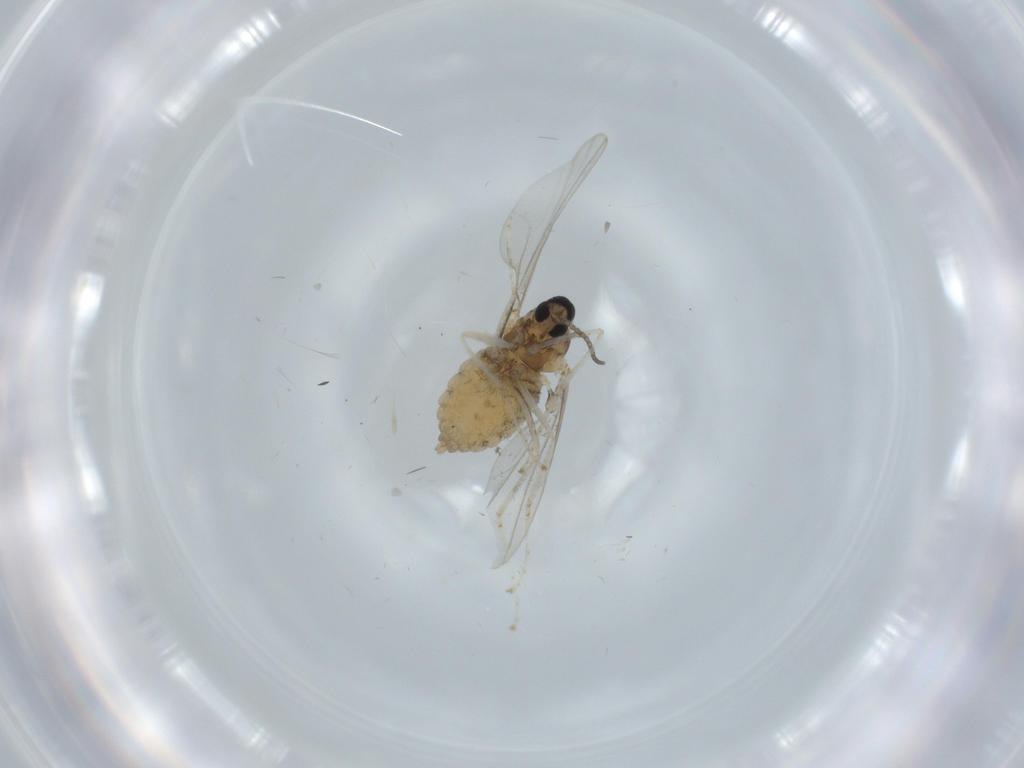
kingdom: Animalia
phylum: Arthropoda
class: Insecta
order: Diptera
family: Cecidomyiidae
